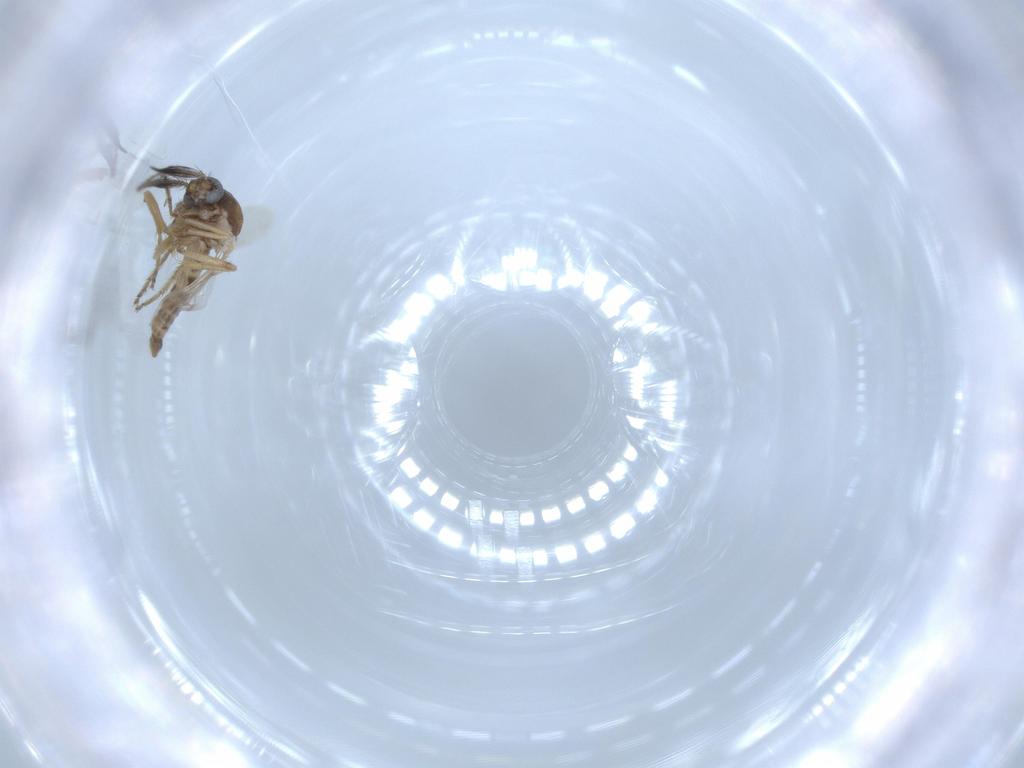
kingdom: Animalia
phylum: Arthropoda
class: Insecta
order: Diptera
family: Ceratopogonidae
